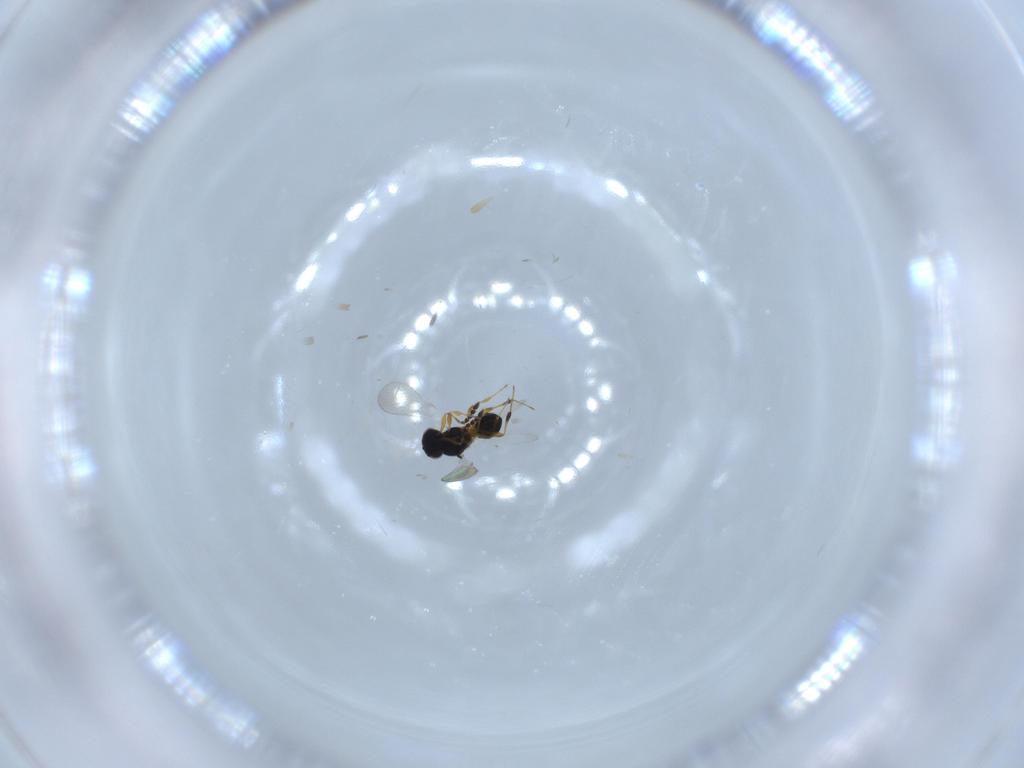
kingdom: Animalia
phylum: Arthropoda
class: Insecta
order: Hymenoptera
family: Platygastridae
